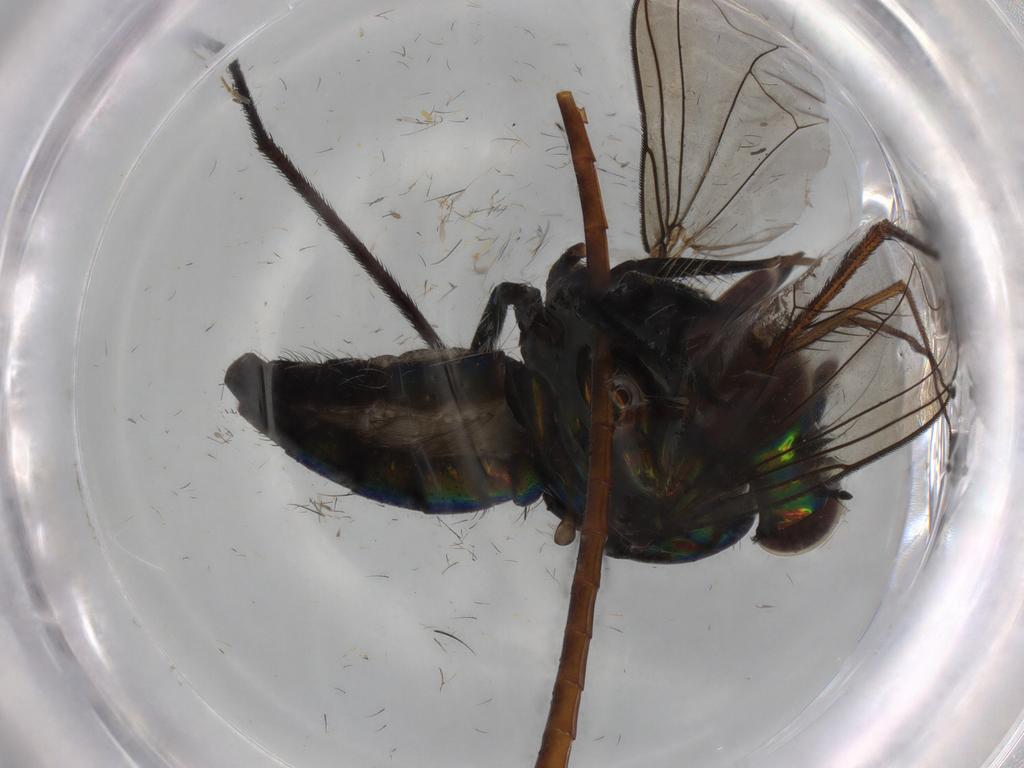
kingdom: Animalia
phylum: Arthropoda
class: Insecta
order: Diptera
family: Dolichopodidae
